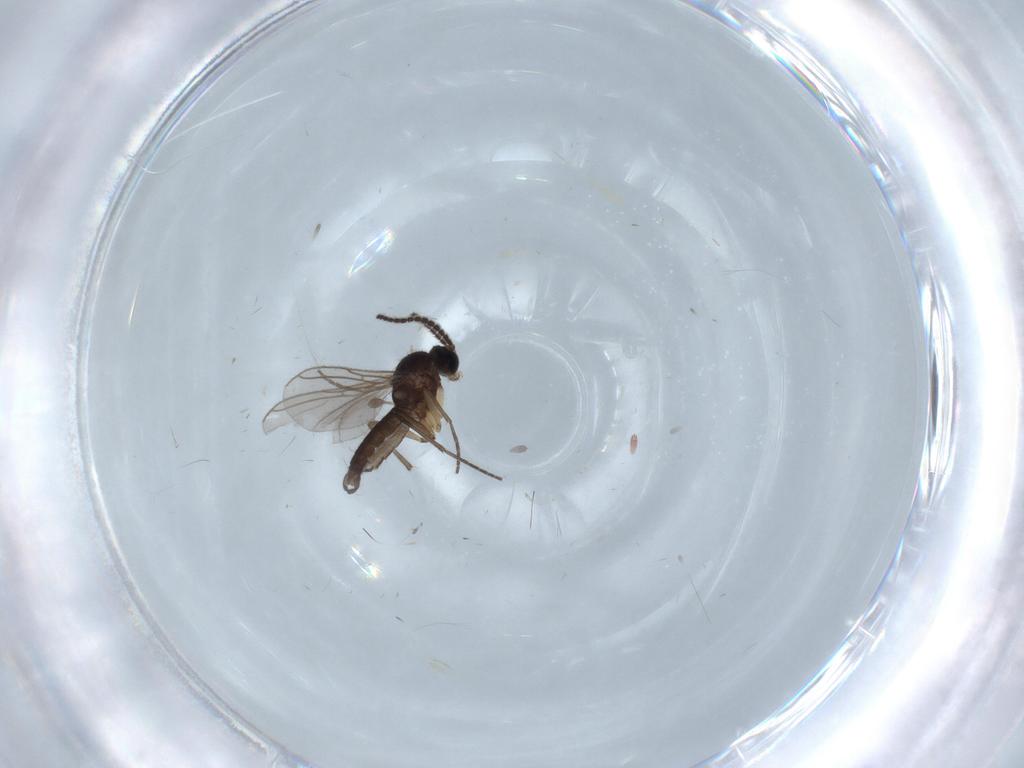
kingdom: Animalia
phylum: Arthropoda
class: Insecta
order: Diptera
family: Sciaridae
